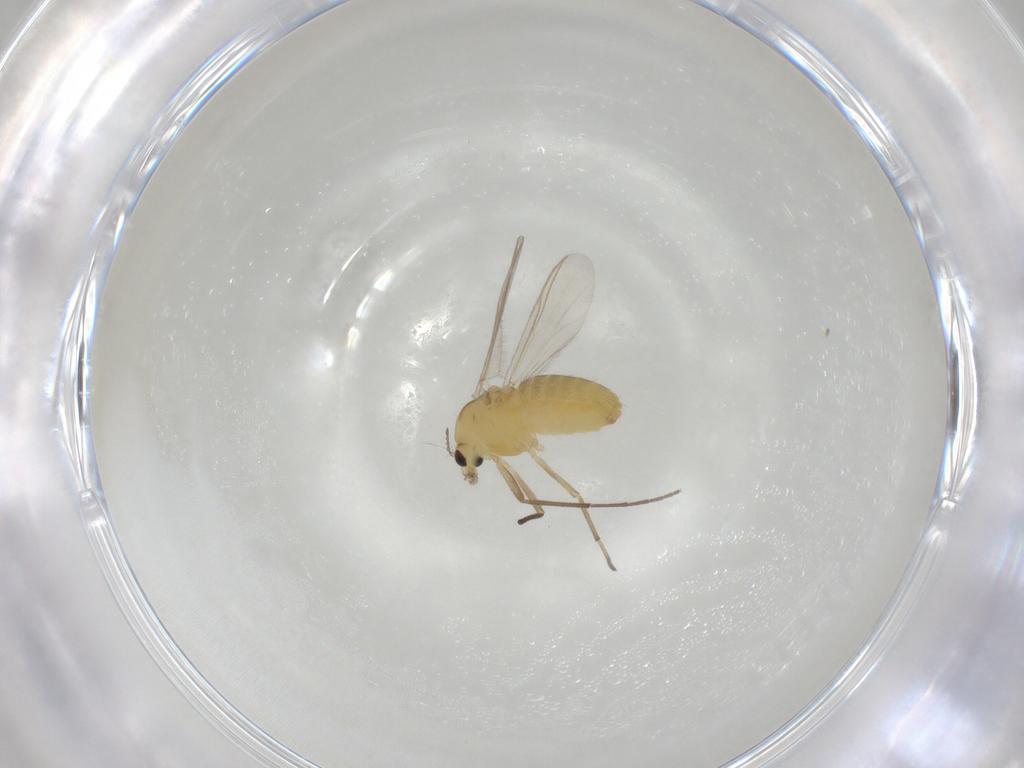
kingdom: Animalia
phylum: Arthropoda
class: Insecta
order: Diptera
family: Chironomidae
